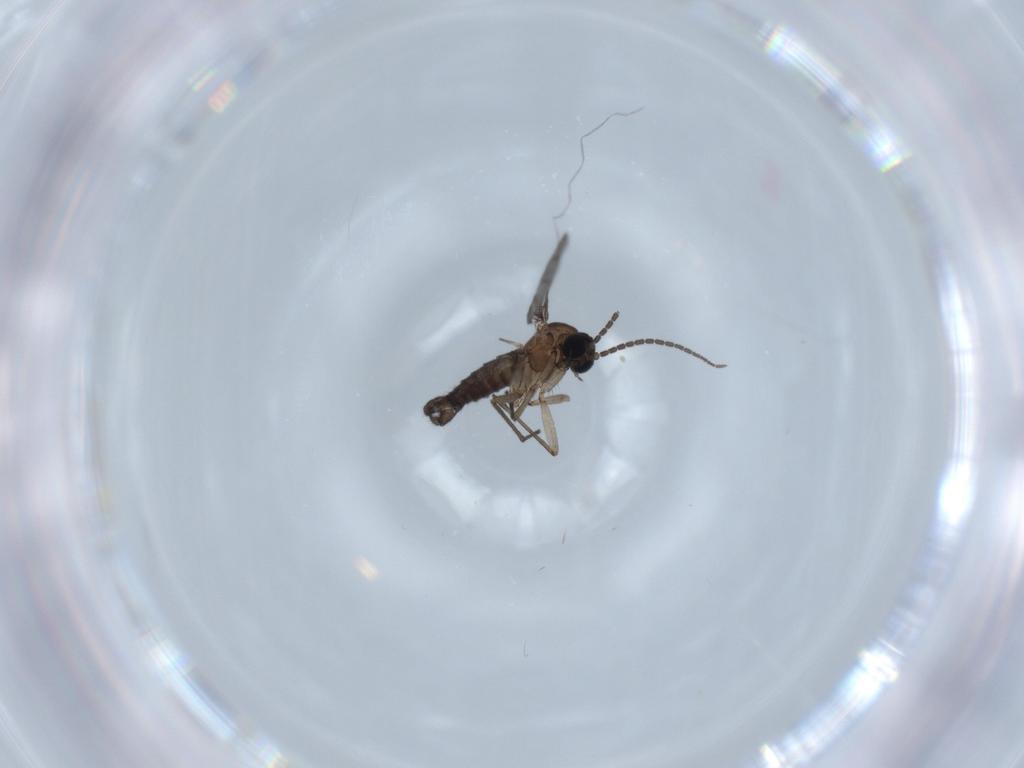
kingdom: Animalia
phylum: Arthropoda
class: Insecta
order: Diptera
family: Sciaridae
